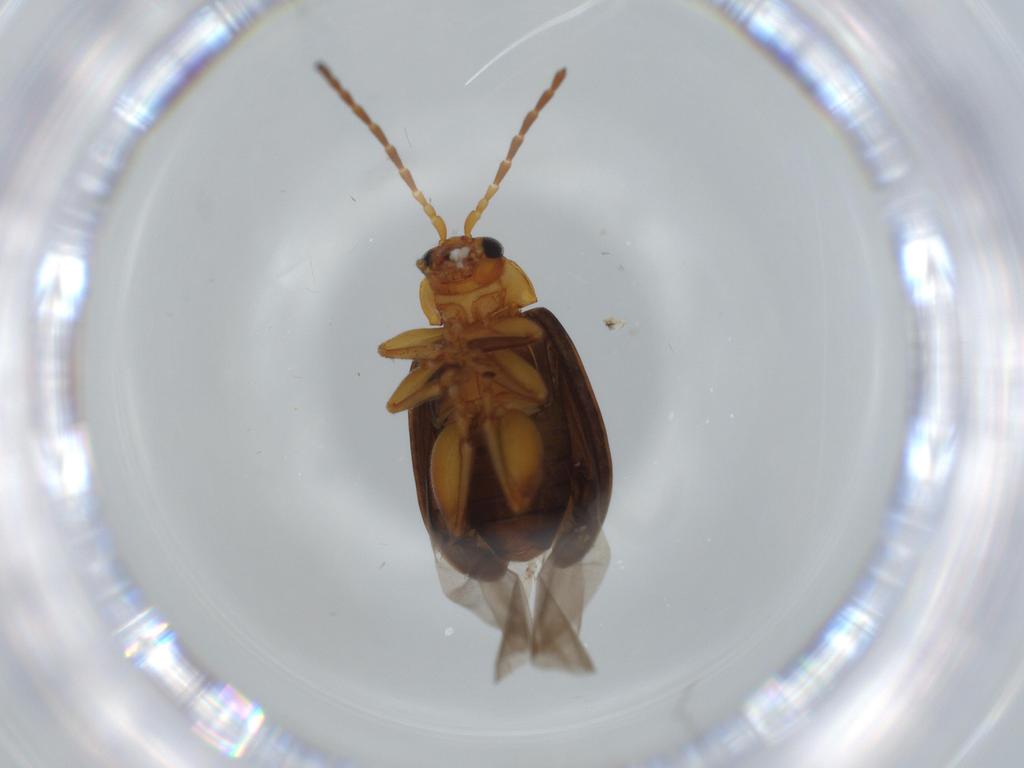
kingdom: Animalia
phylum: Arthropoda
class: Insecta
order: Coleoptera
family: Chrysomelidae
